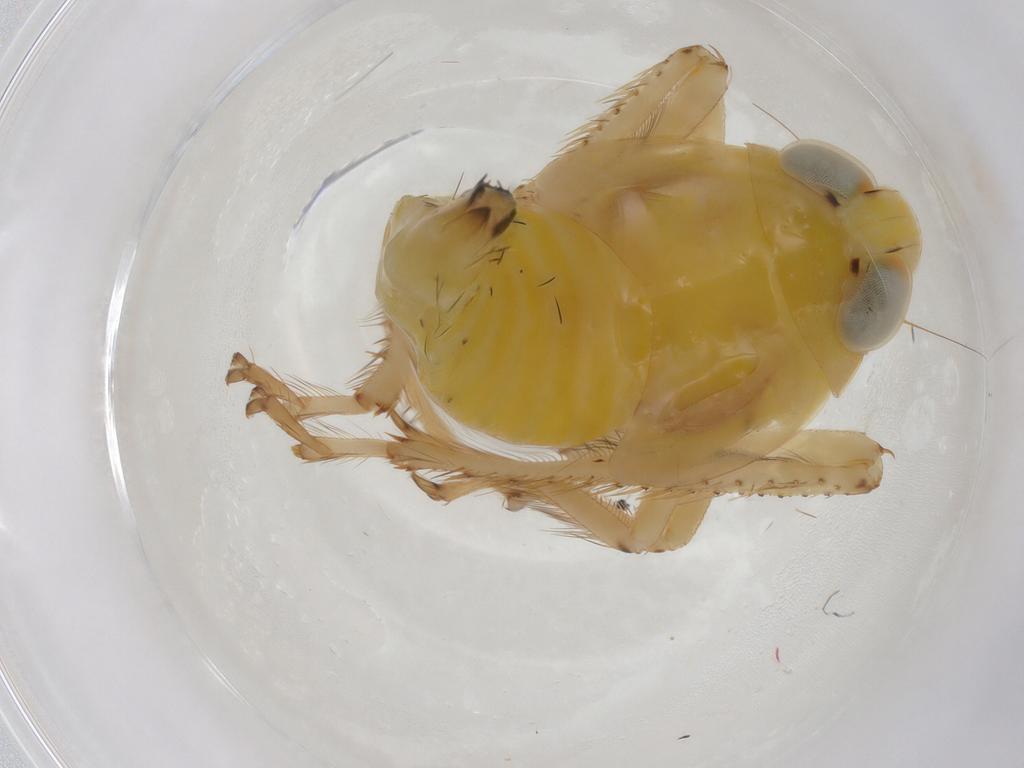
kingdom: Animalia
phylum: Arthropoda
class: Insecta
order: Hemiptera
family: Cicadellidae
